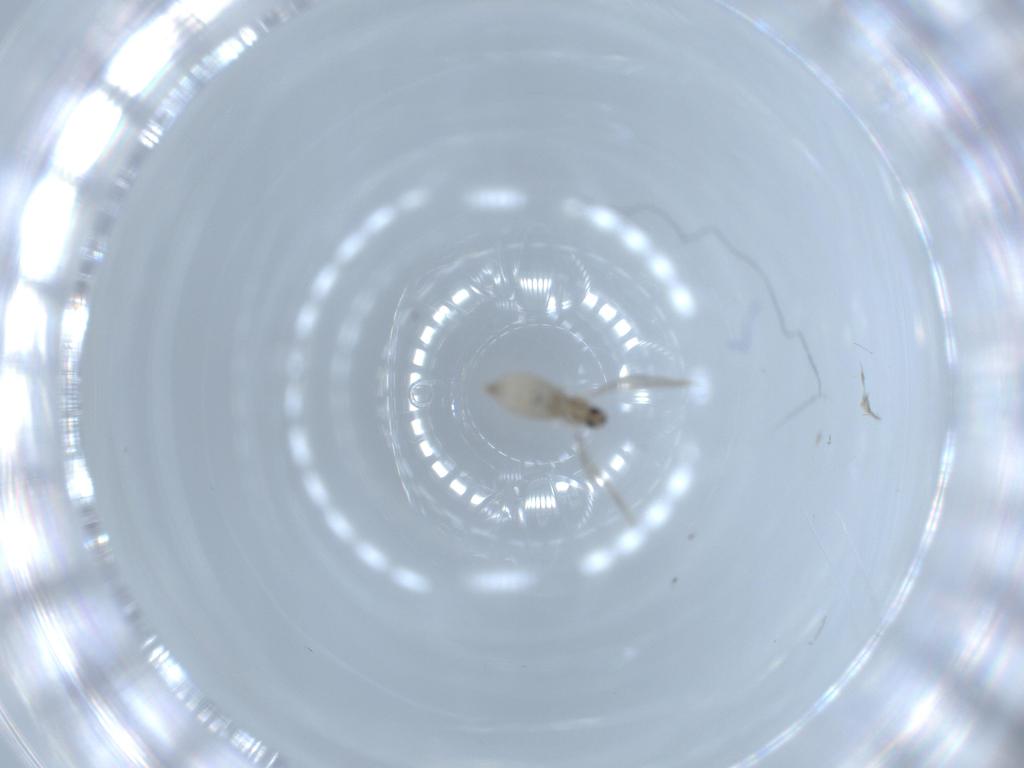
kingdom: Animalia
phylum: Arthropoda
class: Insecta
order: Diptera
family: Cecidomyiidae
